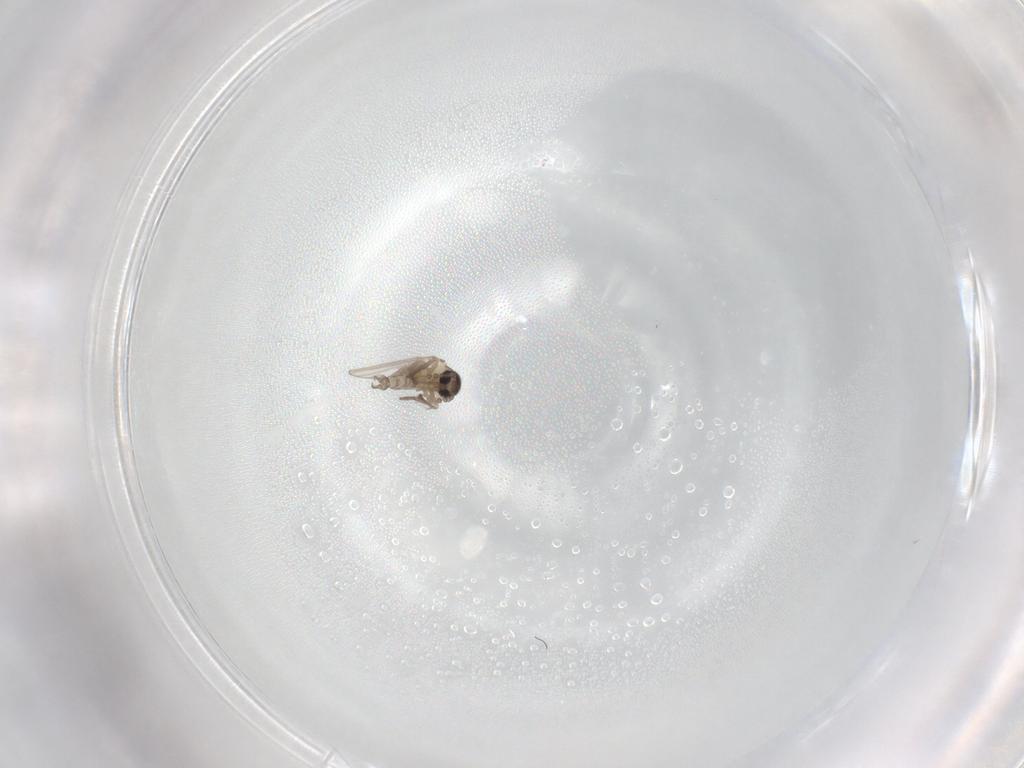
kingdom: Animalia
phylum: Arthropoda
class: Insecta
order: Diptera
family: Psychodidae
